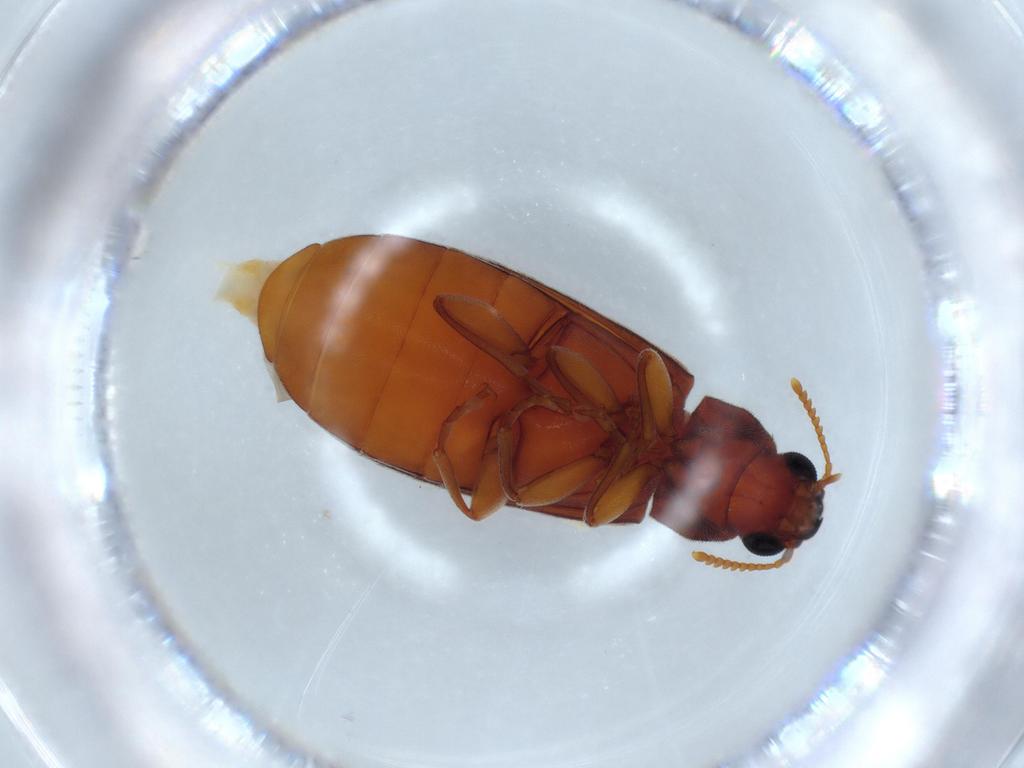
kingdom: Animalia
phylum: Arthropoda
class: Insecta
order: Coleoptera
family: Mycteridae
